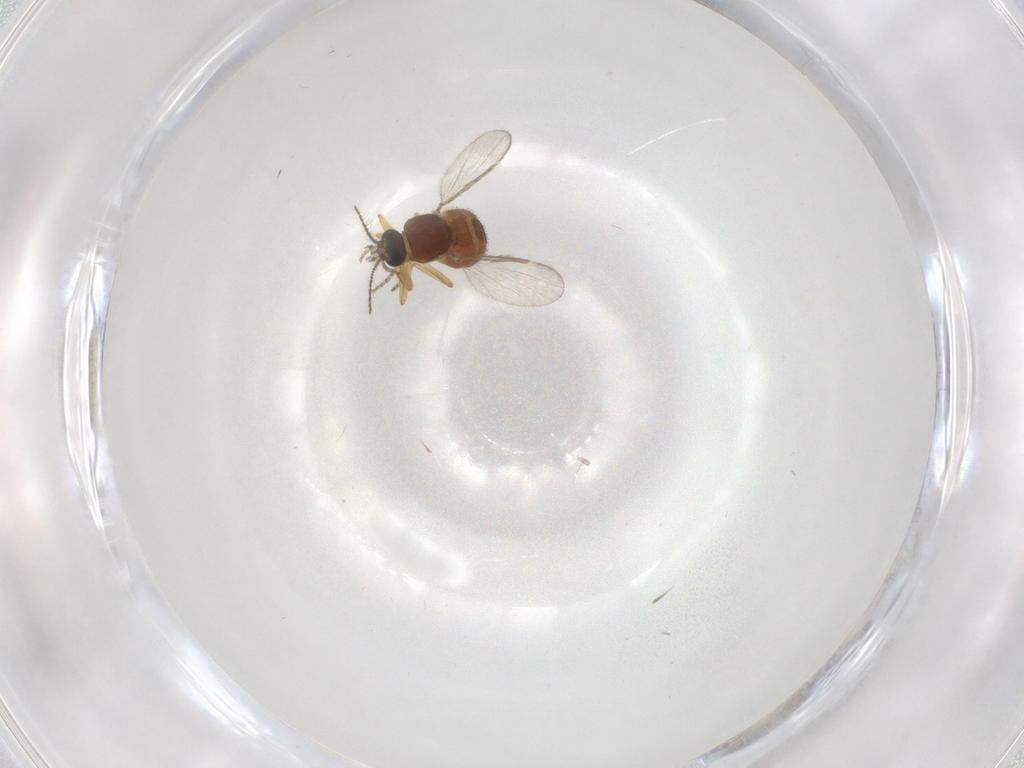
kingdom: Animalia
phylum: Arthropoda
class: Insecta
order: Diptera
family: Ceratopogonidae
